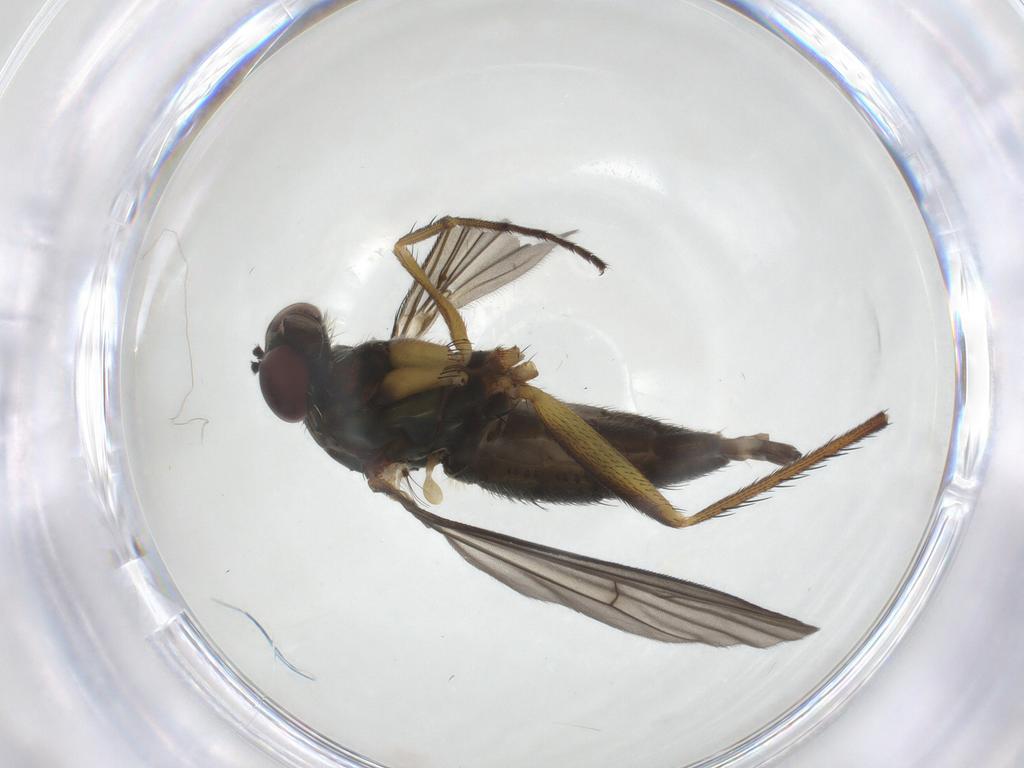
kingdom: Animalia
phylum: Arthropoda
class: Insecta
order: Diptera
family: Dolichopodidae
